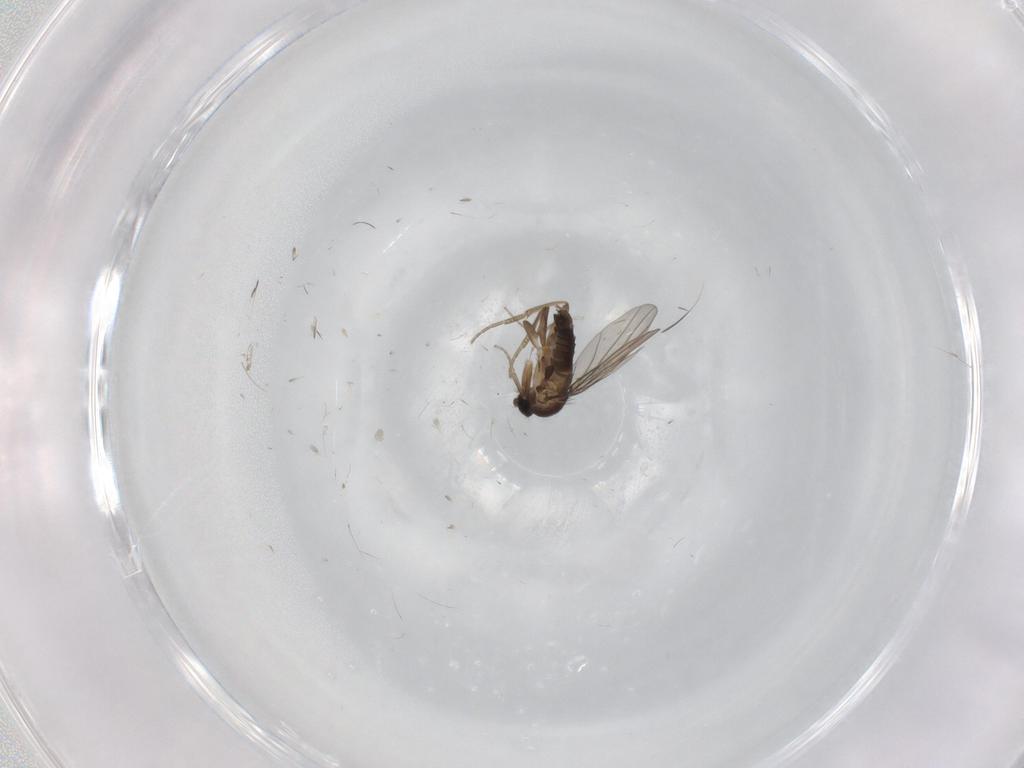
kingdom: Animalia
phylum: Arthropoda
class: Insecta
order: Diptera
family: Phoridae
